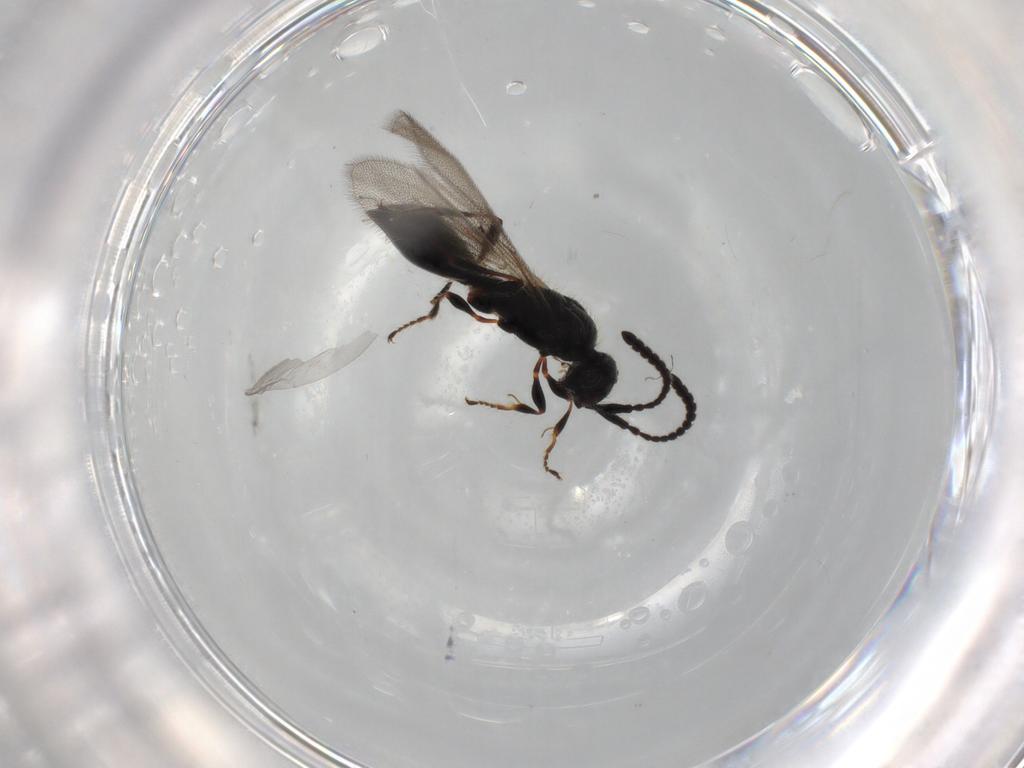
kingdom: Animalia
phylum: Arthropoda
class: Insecta
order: Hymenoptera
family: Diapriidae
